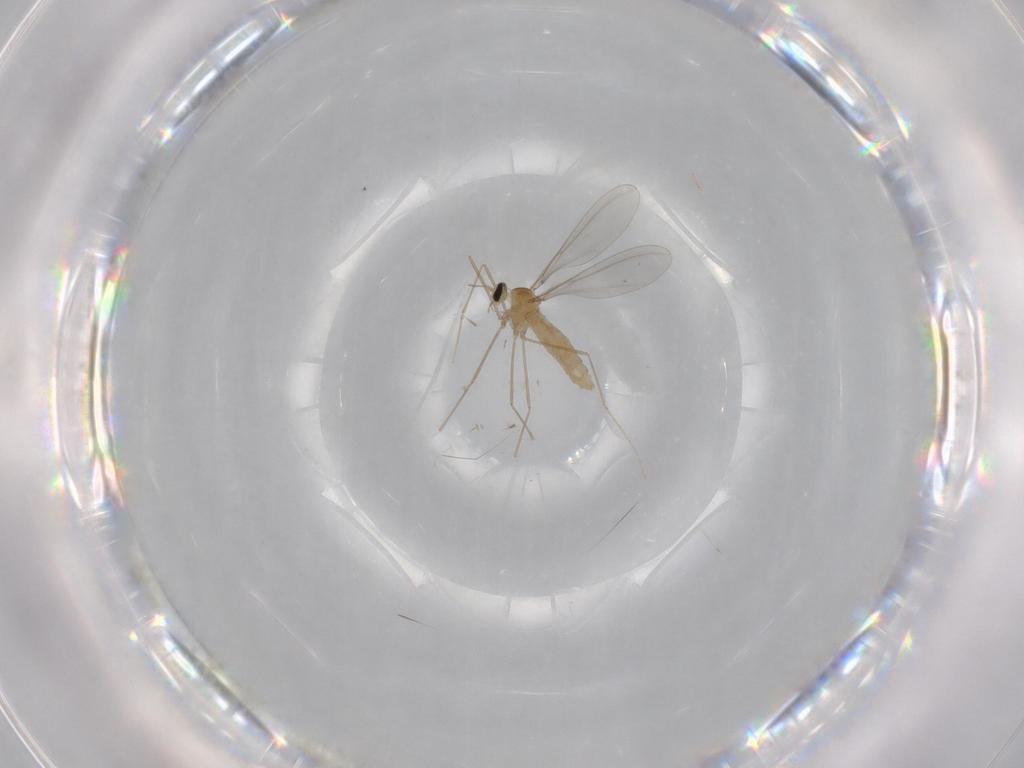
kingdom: Animalia
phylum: Arthropoda
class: Insecta
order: Diptera
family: Cecidomyiidae
